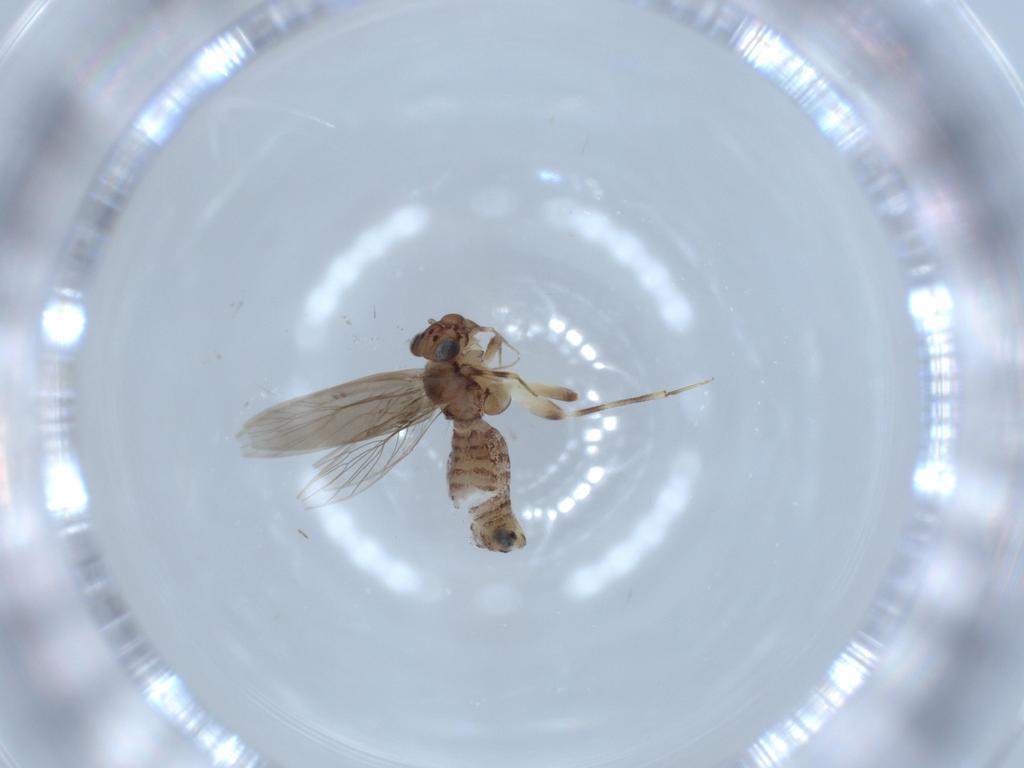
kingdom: Animalia
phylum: Arthropoda
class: Insecta
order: Psocodea
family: Lepidopsocidae
